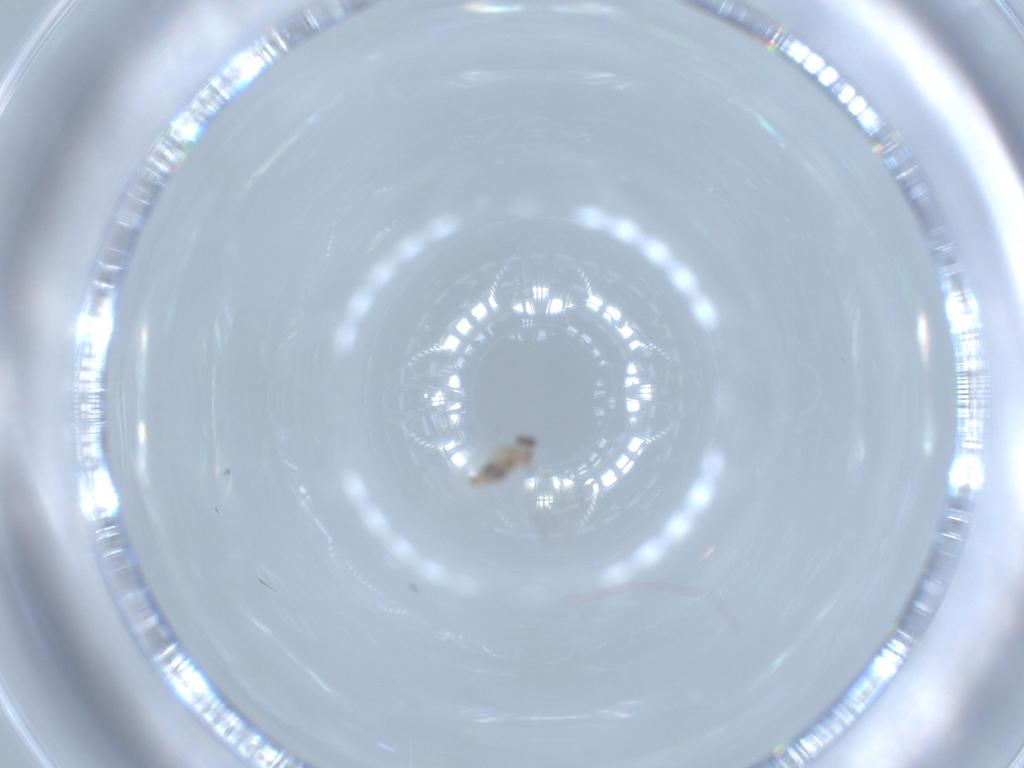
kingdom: Animalia
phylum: Arthropoda
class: Insecta
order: Diptera
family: Cecidomyiidae
